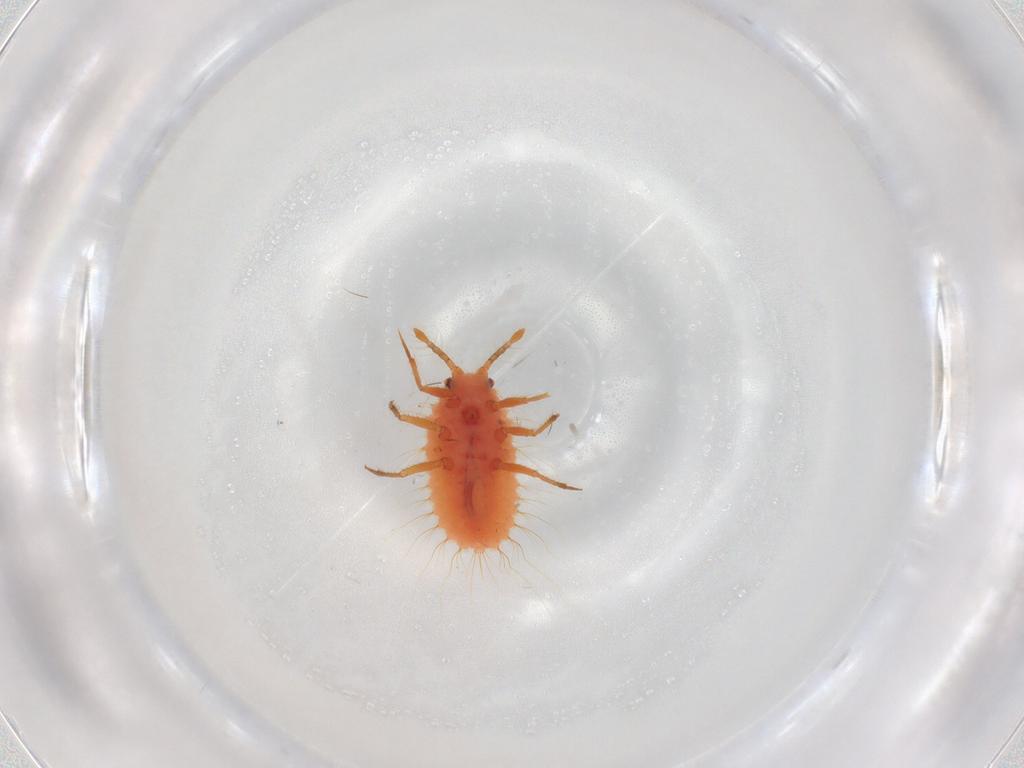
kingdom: Animalia
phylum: Arthropoda
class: Insecta
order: Hemiptera
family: Coccoidea_incertae_sedis
